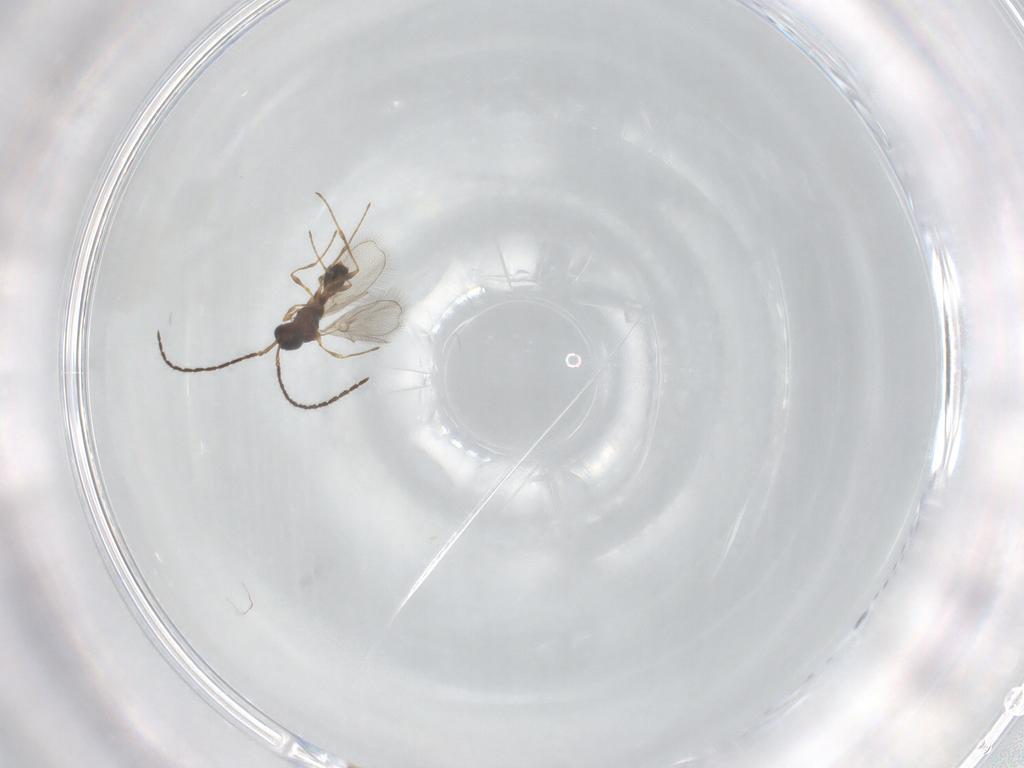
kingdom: Animalia
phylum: Arthropoda
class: Insecta
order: Hymenoptera
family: Diapriidae
